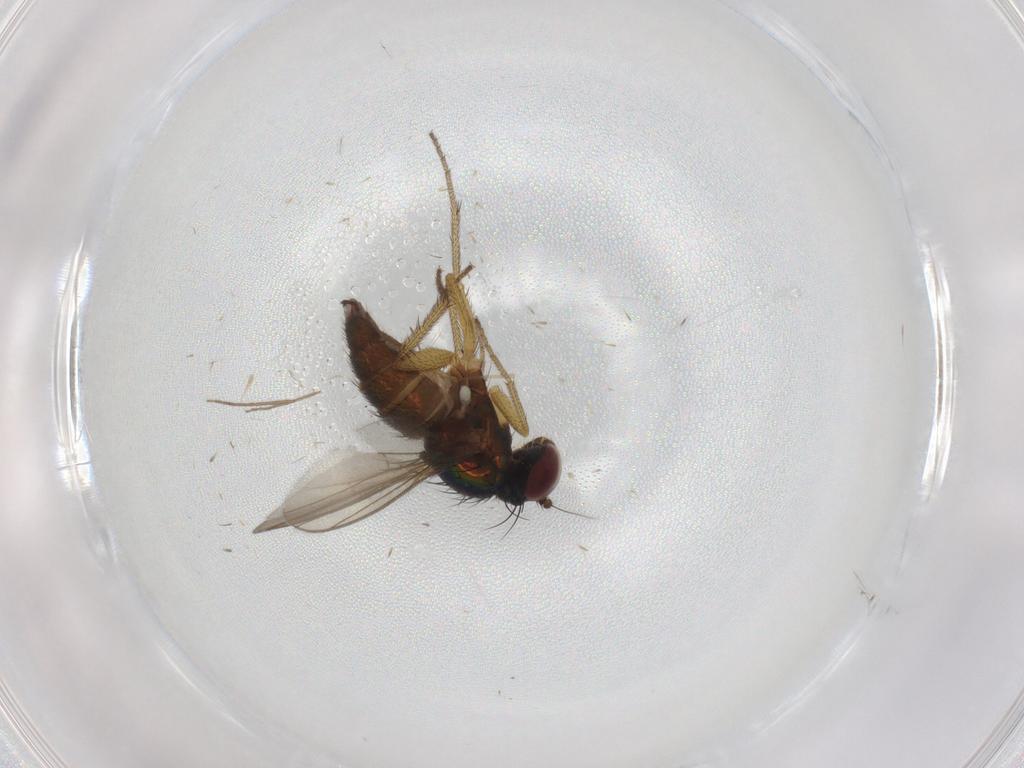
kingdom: Animalia
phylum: Arthropoda
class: Insecta
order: Diptera
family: Chironomidae
